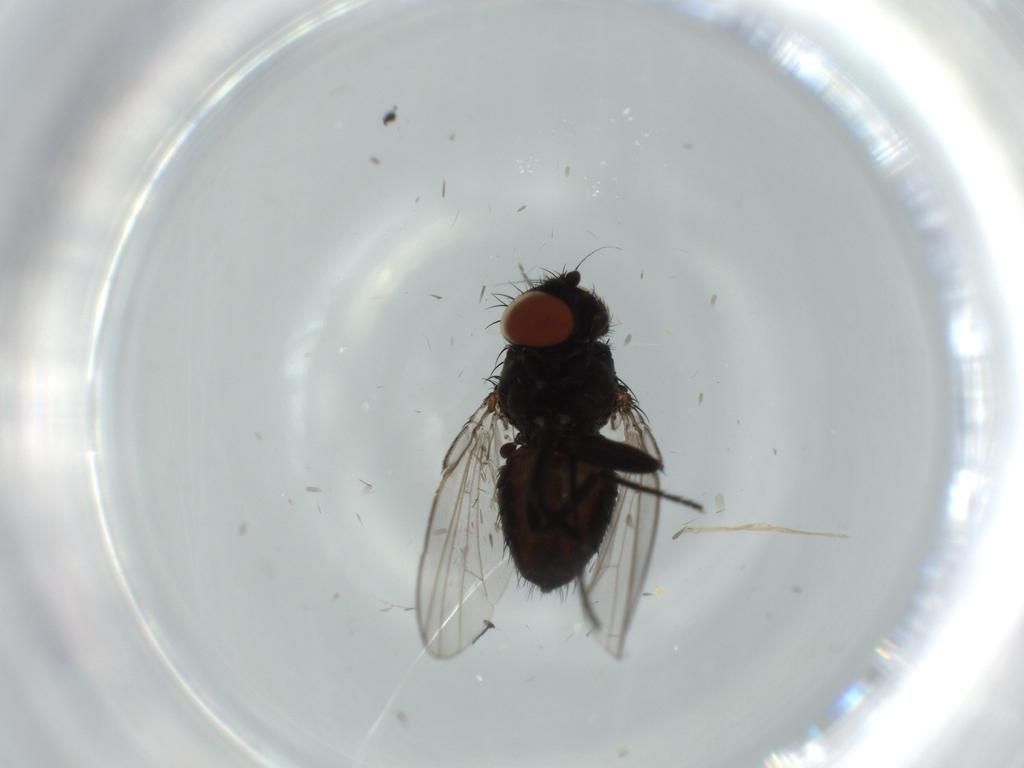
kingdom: Animalia
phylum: Arthropoda
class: Insecta
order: Diptera
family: Milichiidae
